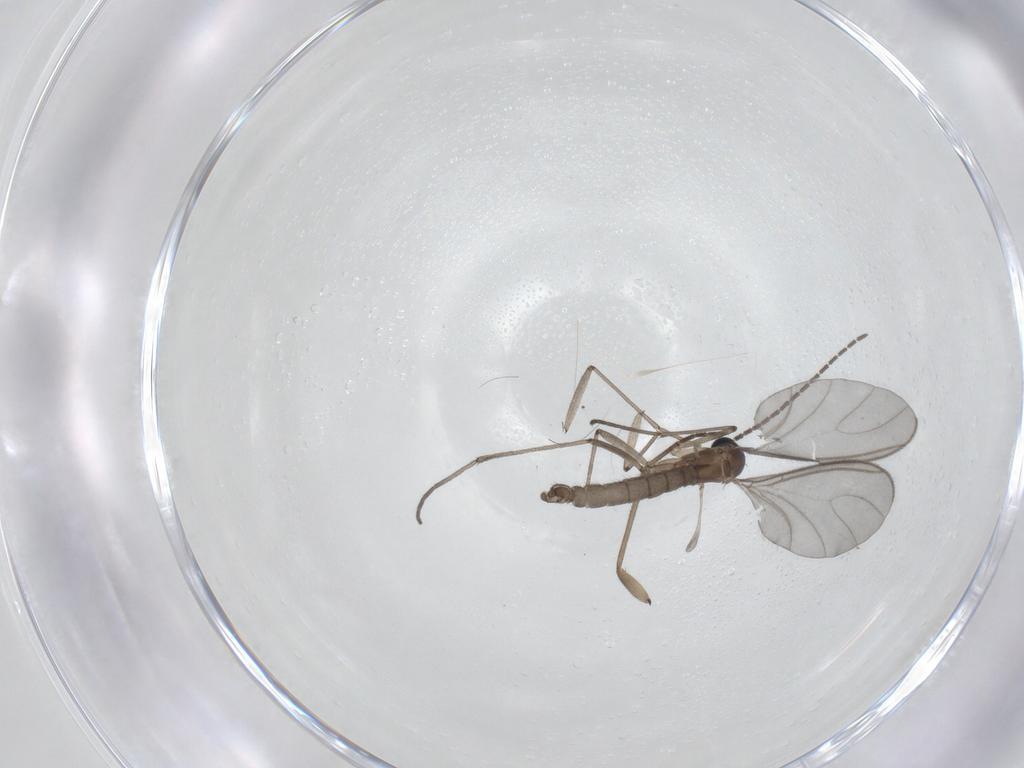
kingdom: Animalia
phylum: Arthropoda
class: Insecta
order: Diptera
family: Sciaridae
